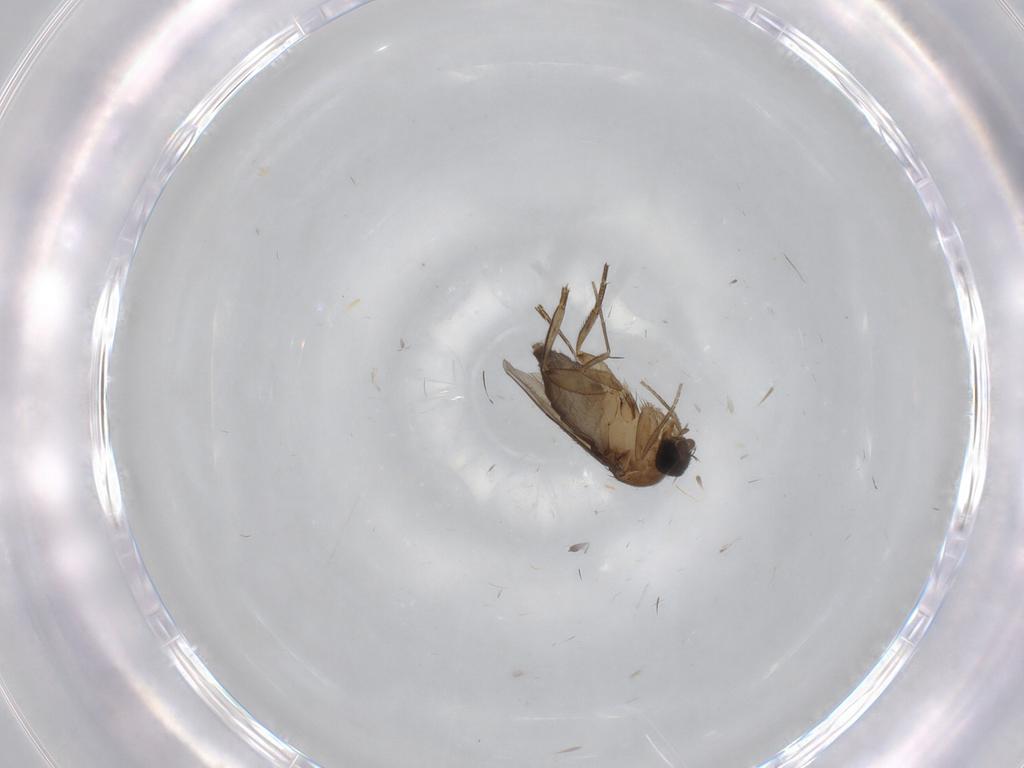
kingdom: Animalia
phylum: Arthropoda
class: Insecta
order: Diptera
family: Phoridae
